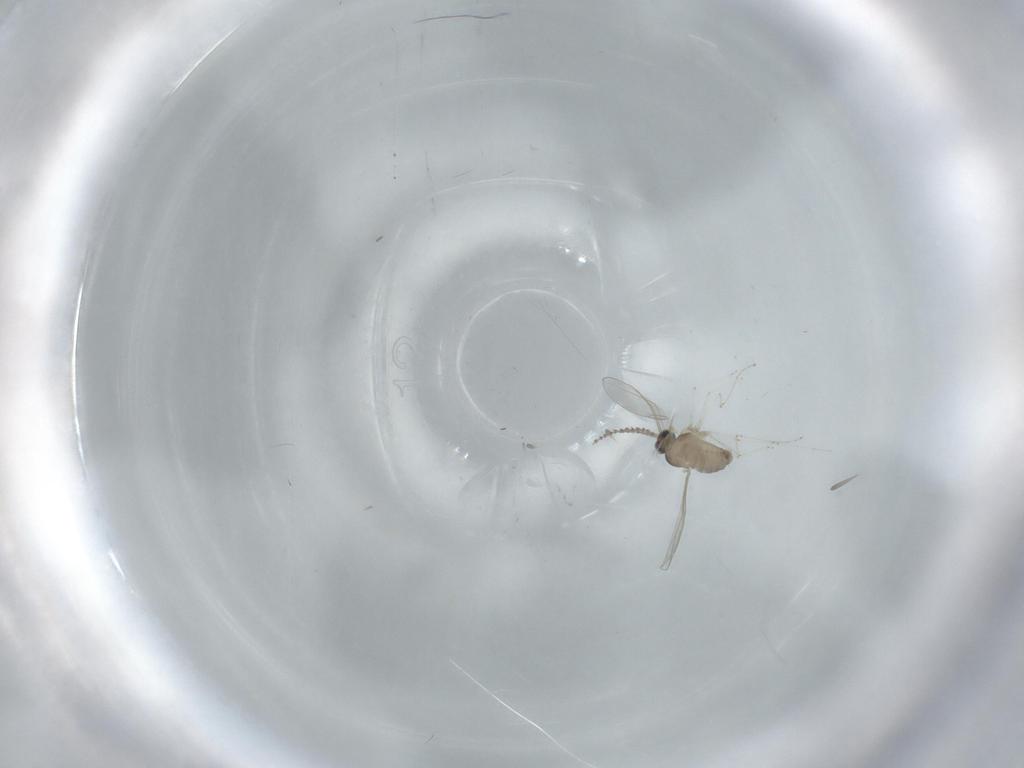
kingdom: Animalia
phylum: Arthropoda
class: Insecta
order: Diptera
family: Cecidomyiidae
